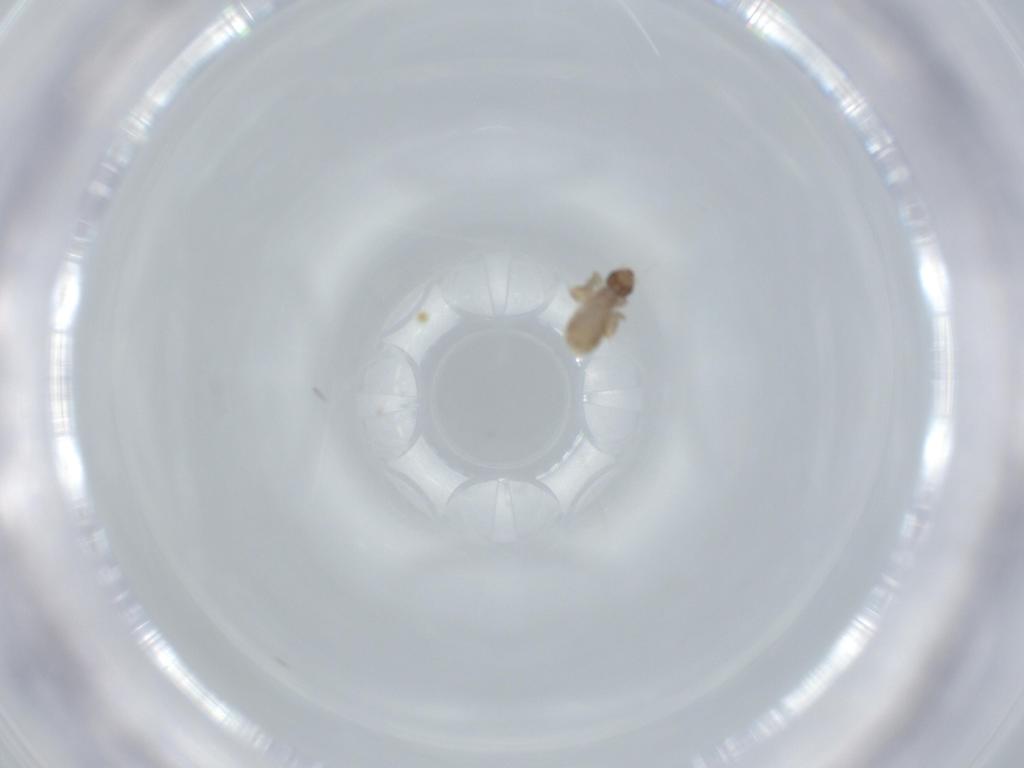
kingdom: Animalia
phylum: Arthropoda
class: Insecta
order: Psocodea
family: Liposcelididae
